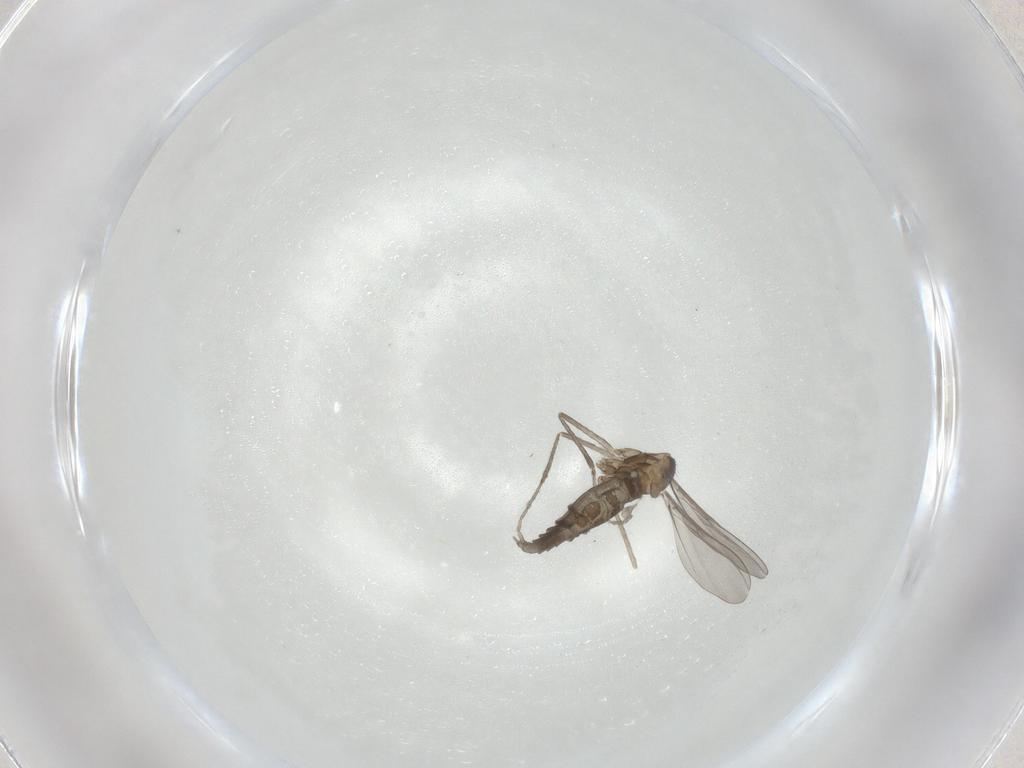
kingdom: Animalia
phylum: Arthropoda
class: Insecta
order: Diptera
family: Cecidomyiidae
